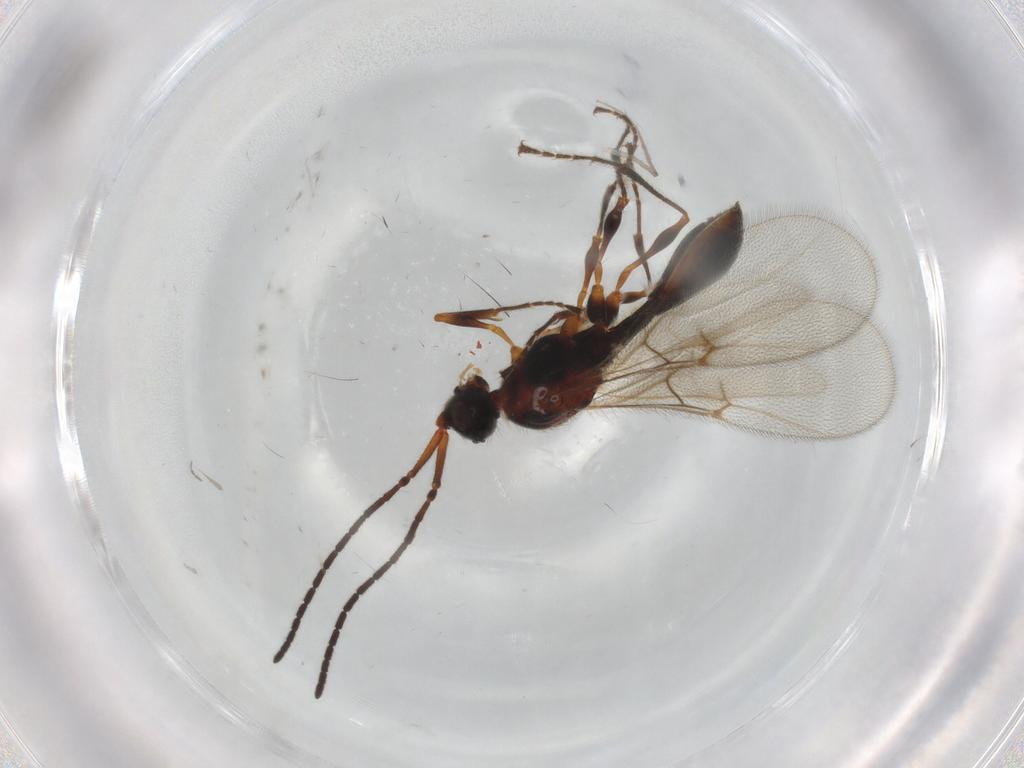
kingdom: Animalia
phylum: Arthropoda
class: Insecta
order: Hymenoptera
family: Diapriidae
